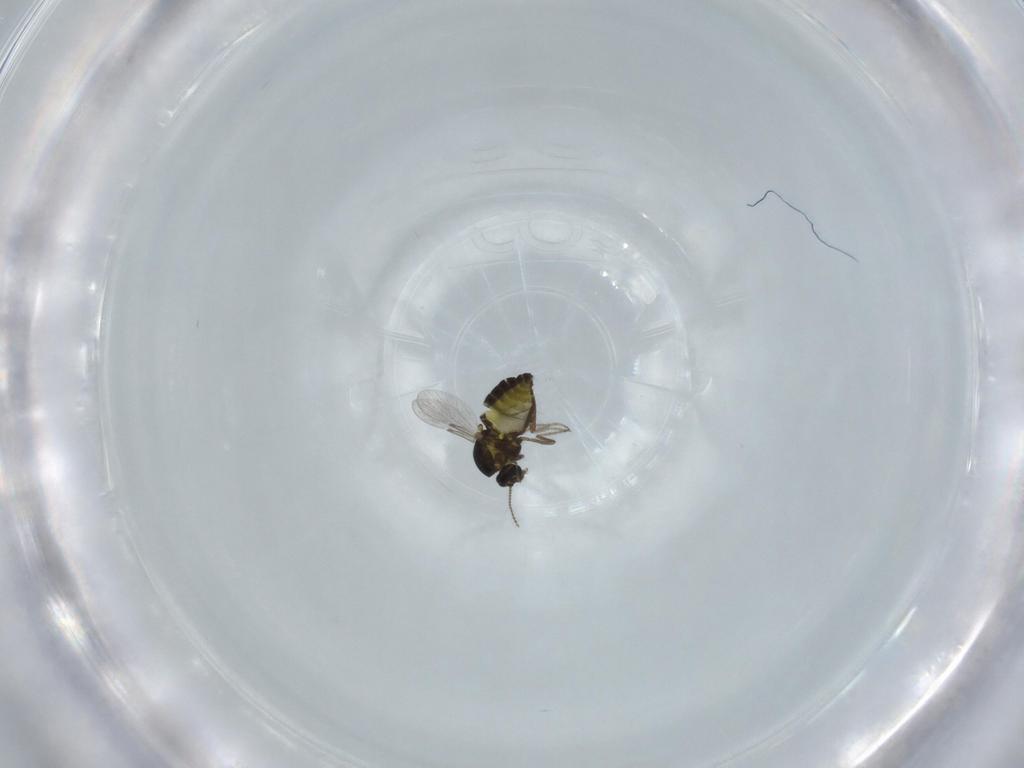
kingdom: Animalia
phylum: Arthropoda
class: Insecta
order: Diptera
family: Ceratopogonidae
